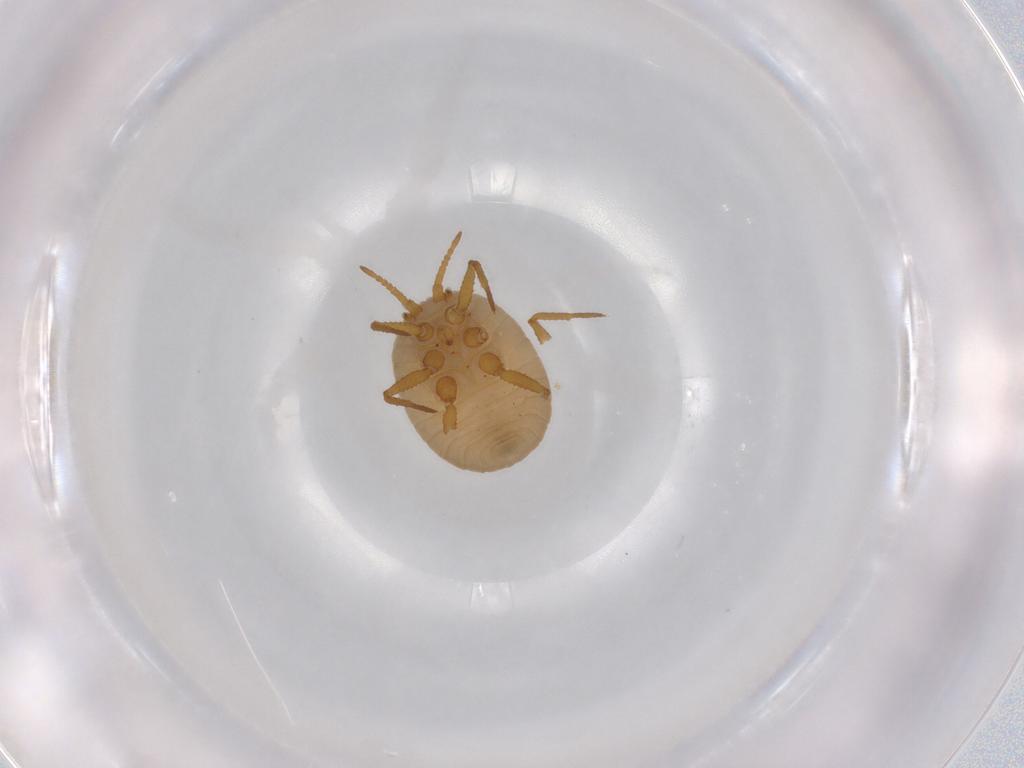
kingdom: Animalia
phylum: Arthropoda
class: Insecta
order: Hemiptera
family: Ortheziidae
